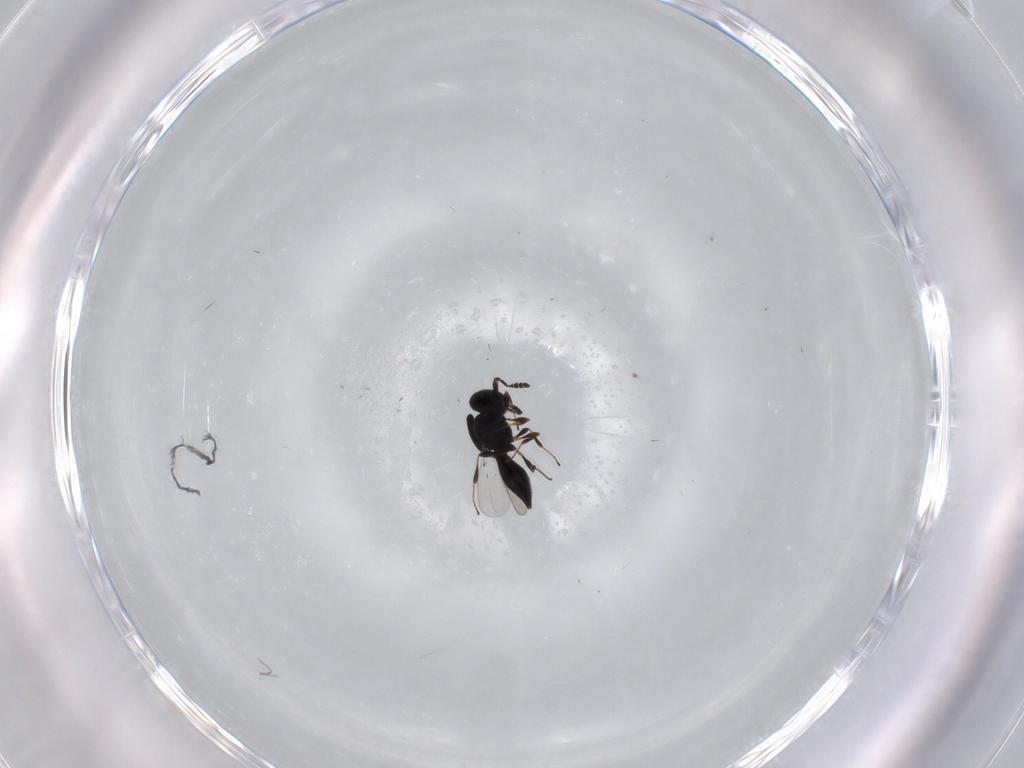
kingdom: Animalia
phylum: Arthropoda
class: Insecta
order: Hymenoptera
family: Platygastridae
